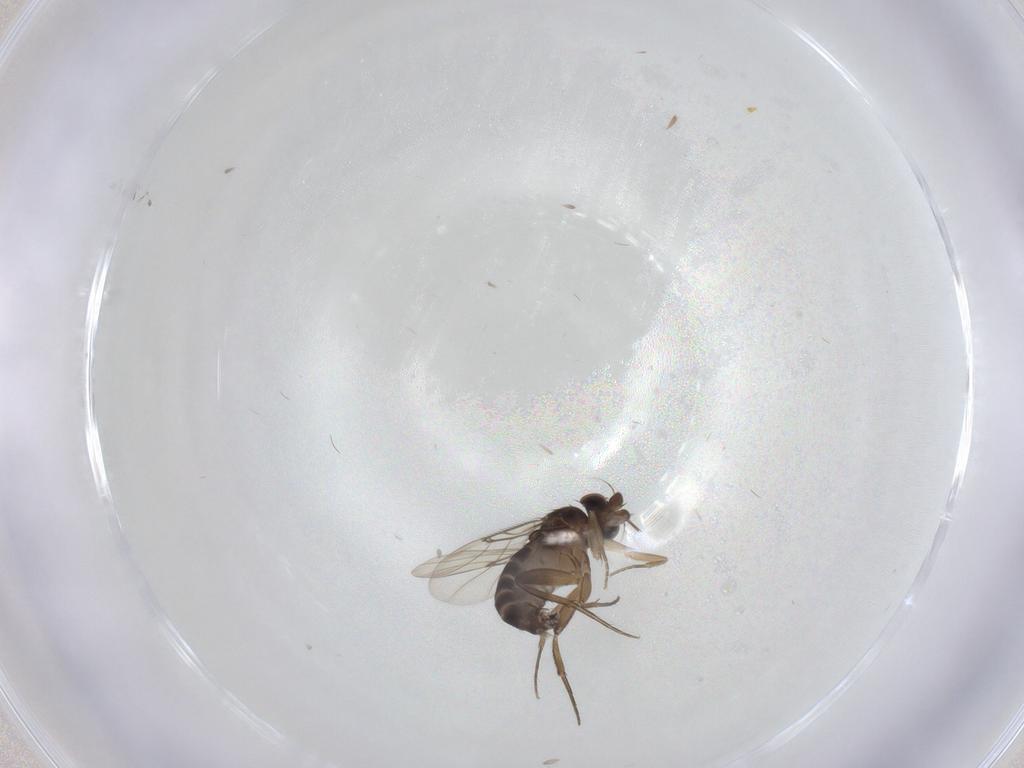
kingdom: Animalia
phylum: Arthropoda
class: Insecta
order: Diptera
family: Phoridae
